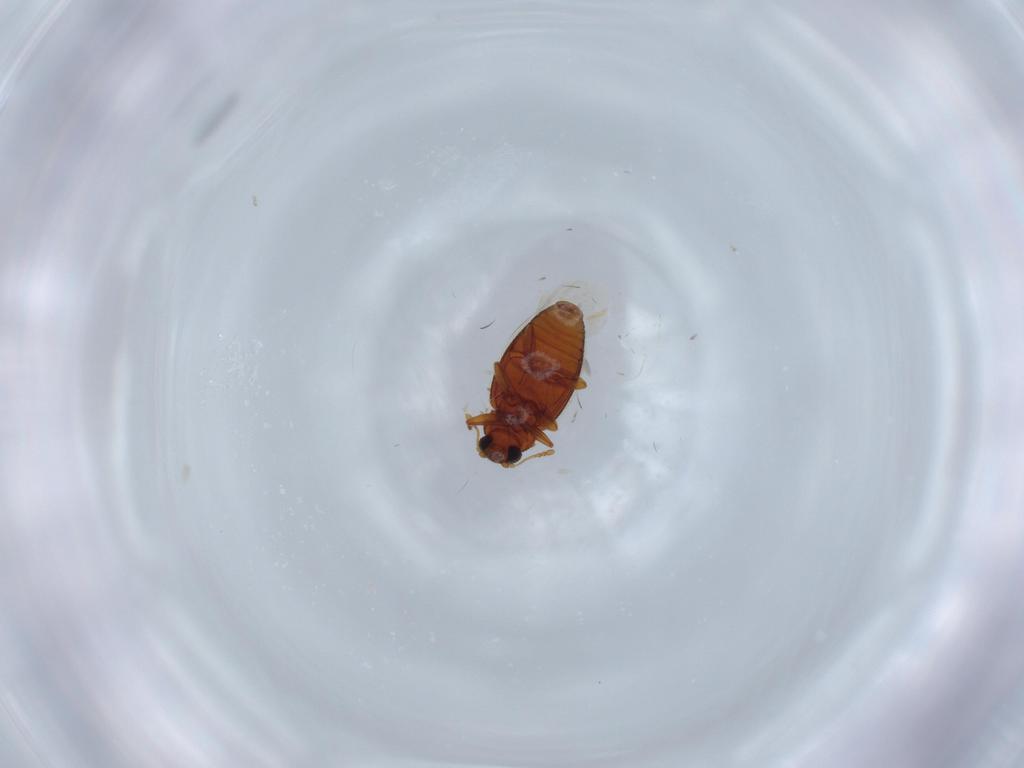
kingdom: Animalia
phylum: Arthropoda
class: Insecta
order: Coleoptera
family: Latridiidae
